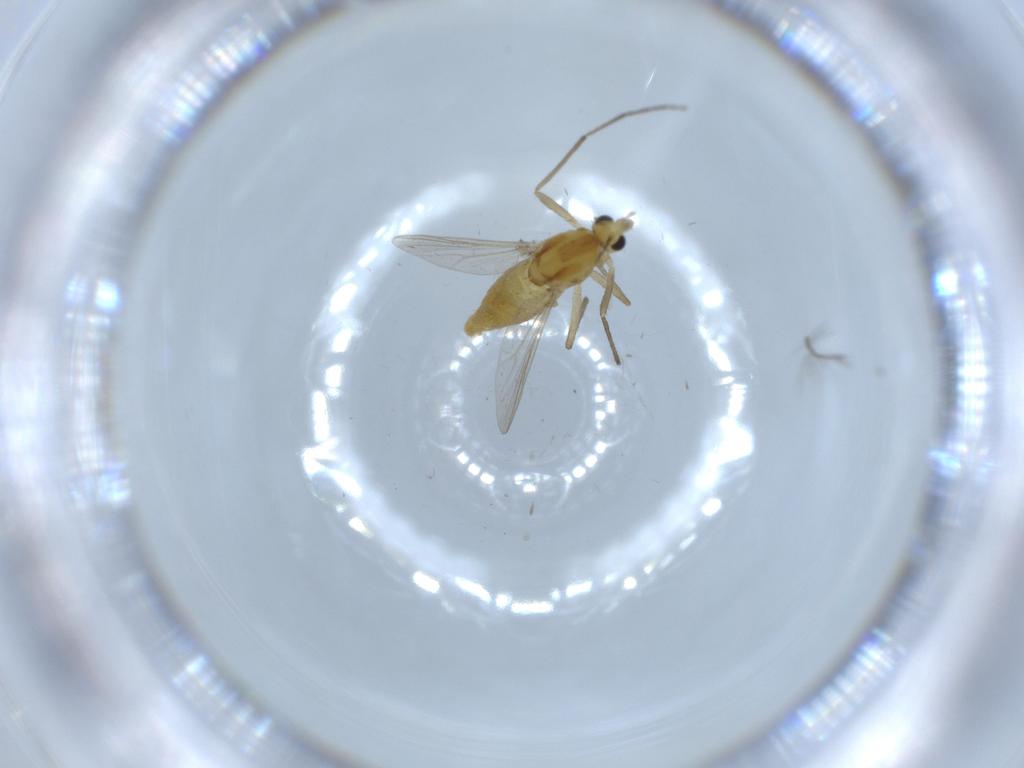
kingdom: Animalia
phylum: Arthropoda
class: Insecta
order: Diptera
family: Chironomidae
